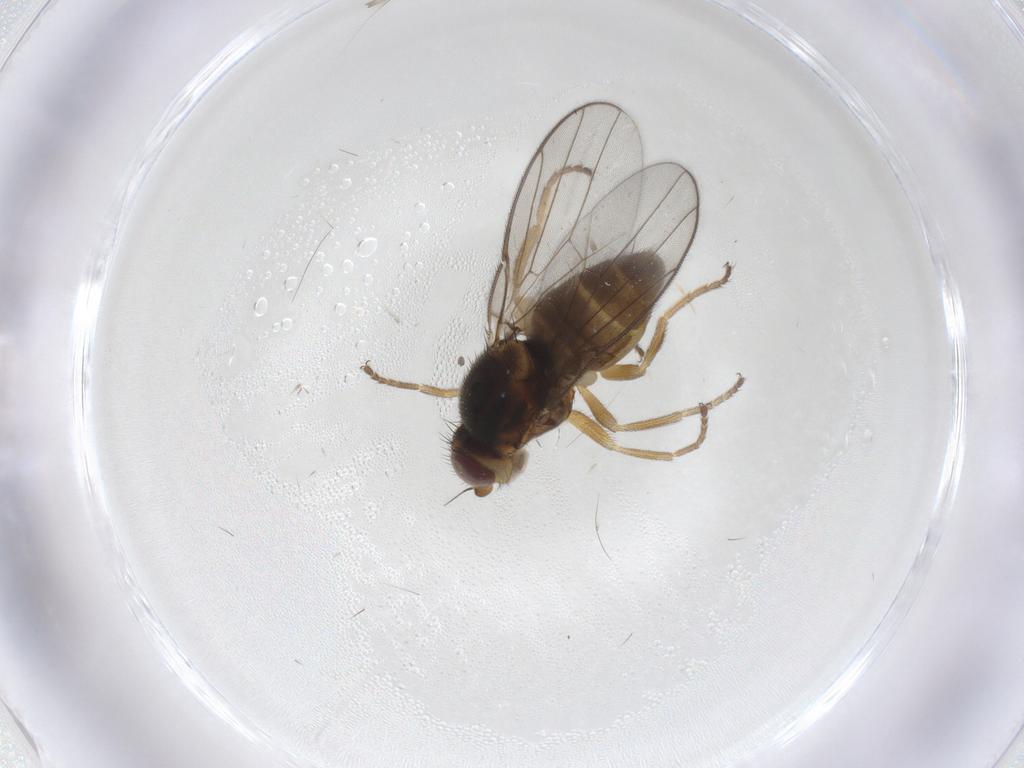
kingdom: Animalia
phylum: Arthropoda
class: Insecta
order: Diptera
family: Chloropidae
